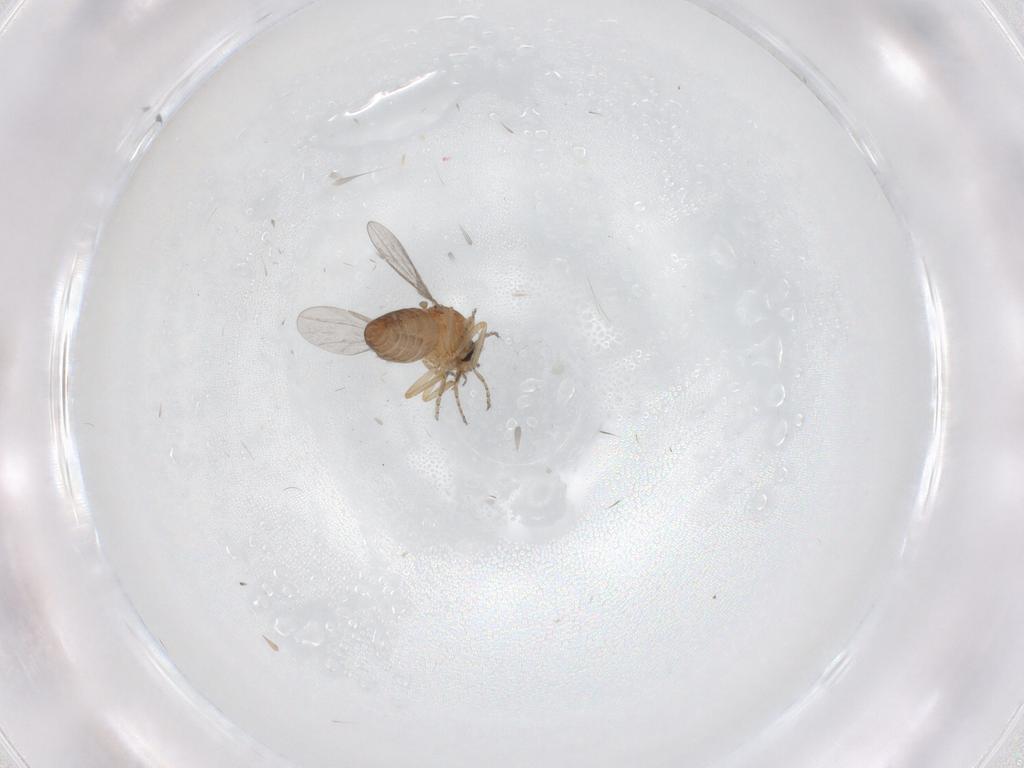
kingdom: Animalia
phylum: Arthropoda
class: Insecta
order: Diptera
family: Ceratopogonidae
